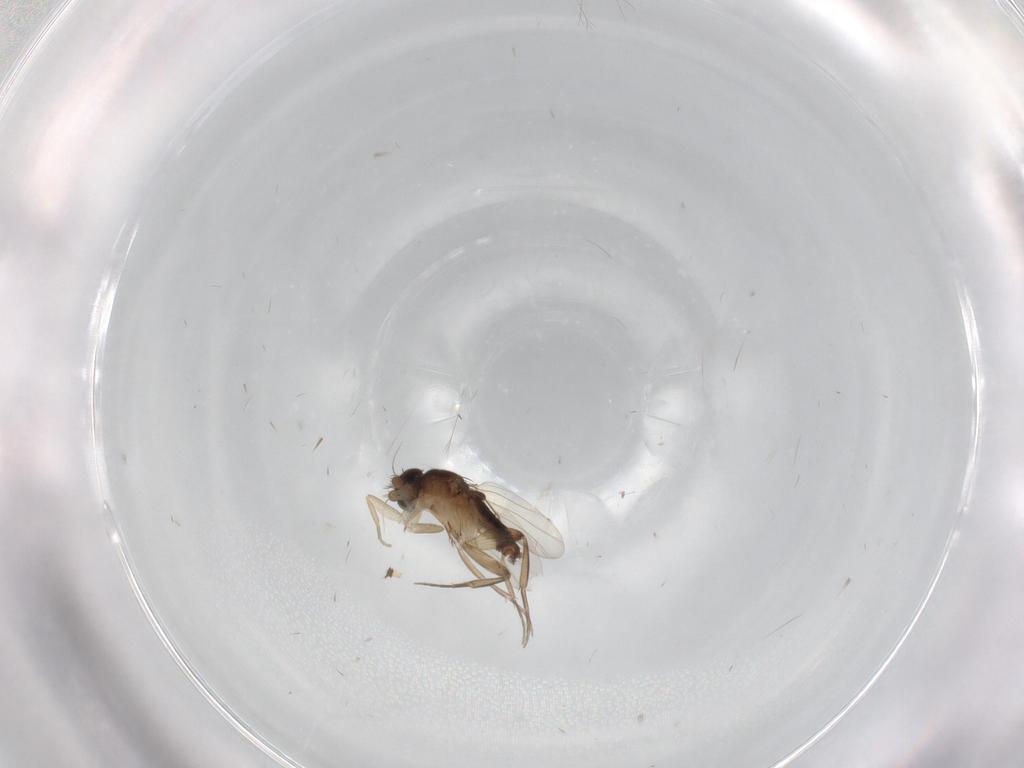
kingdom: Animalia
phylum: Arthropoda
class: Insecta
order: Diptera
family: Phoridae
